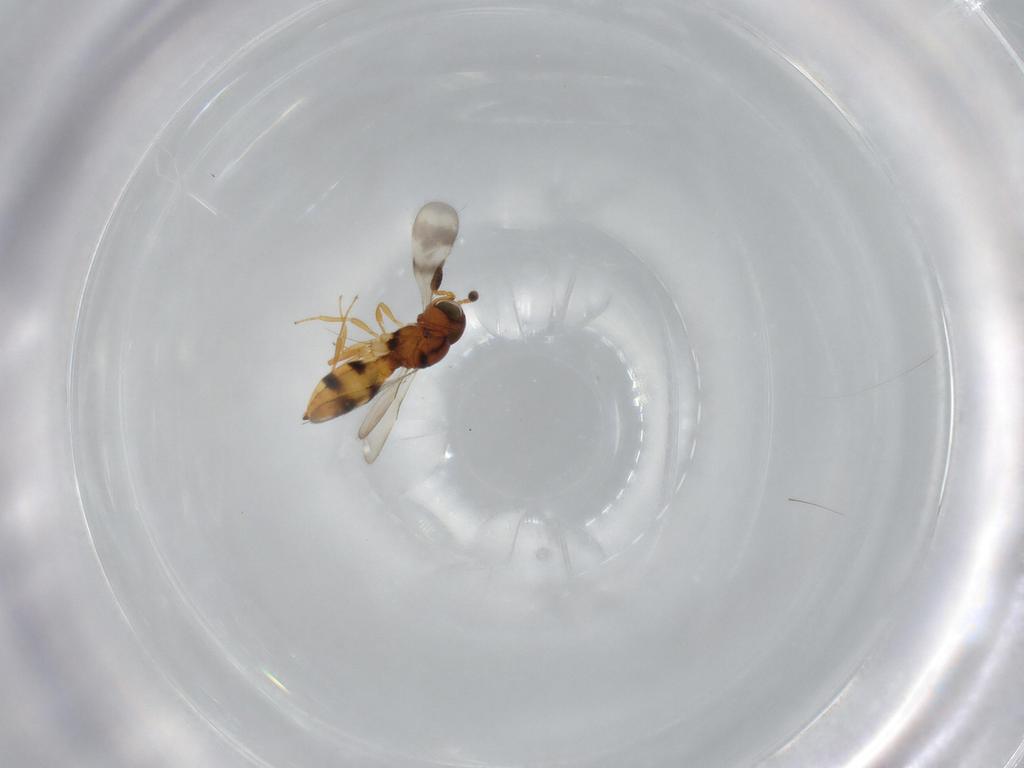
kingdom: Animalia
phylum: Arthropoda
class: Insecta
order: Hymenoptera
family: Scelionidae
